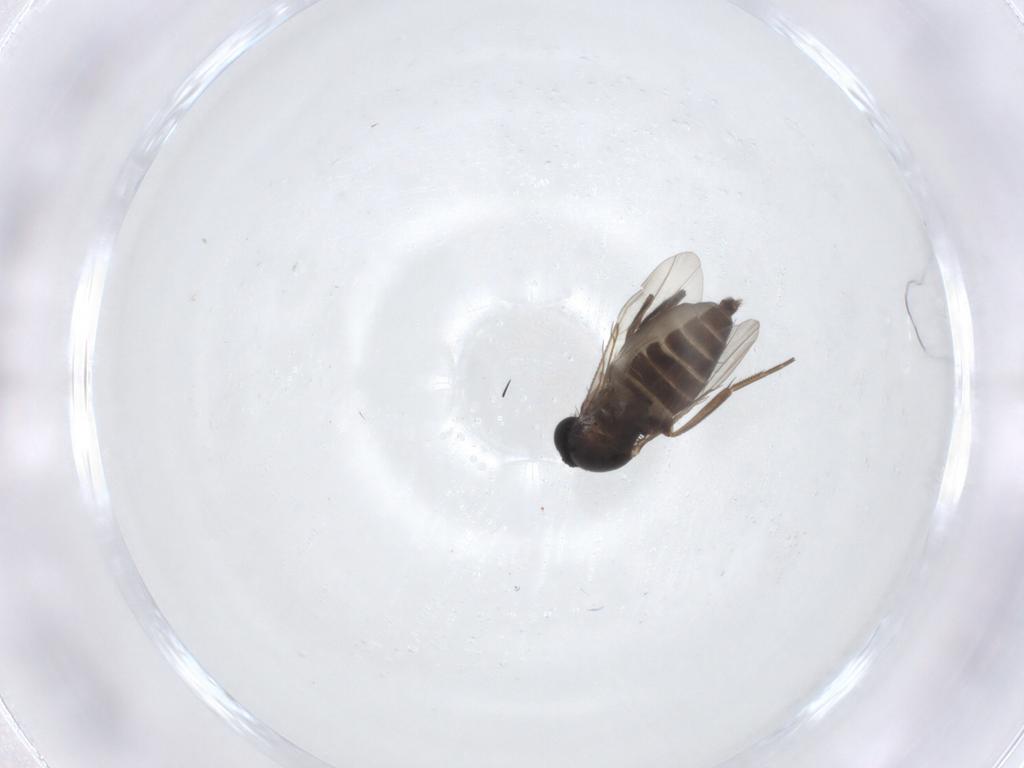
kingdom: Animalia
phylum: Arthropoda
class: Insecta
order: Diptera
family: Phoridae
